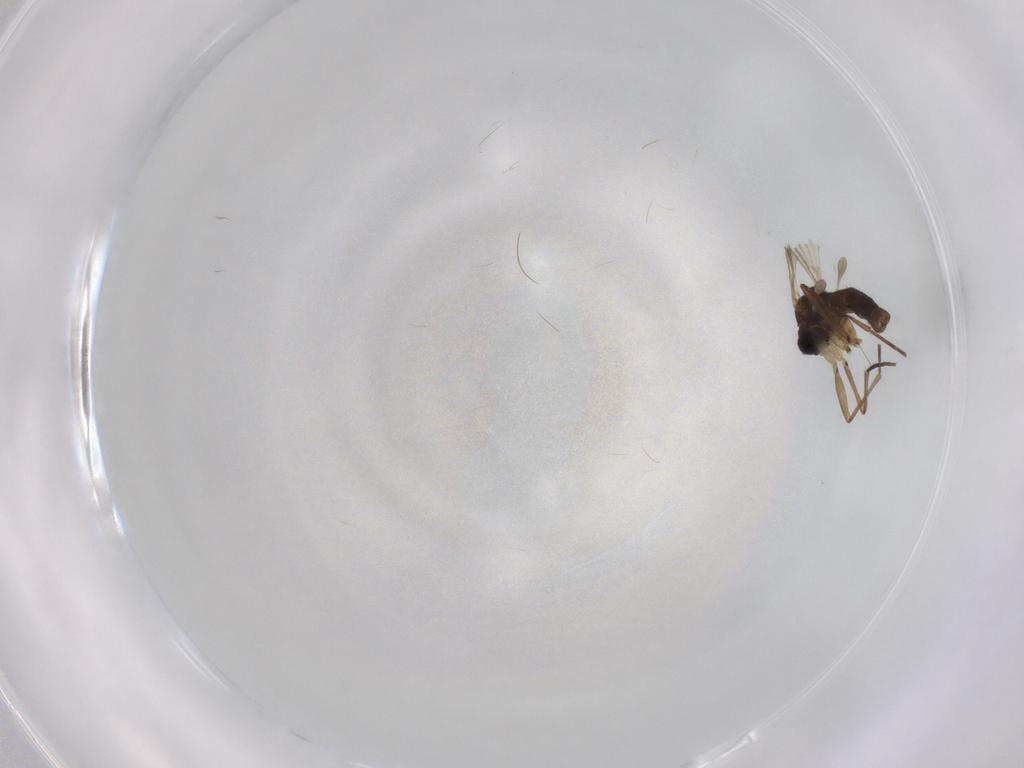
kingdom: Animalia
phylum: Arthropoda
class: Insecta
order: Diptera
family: Sciaridae
